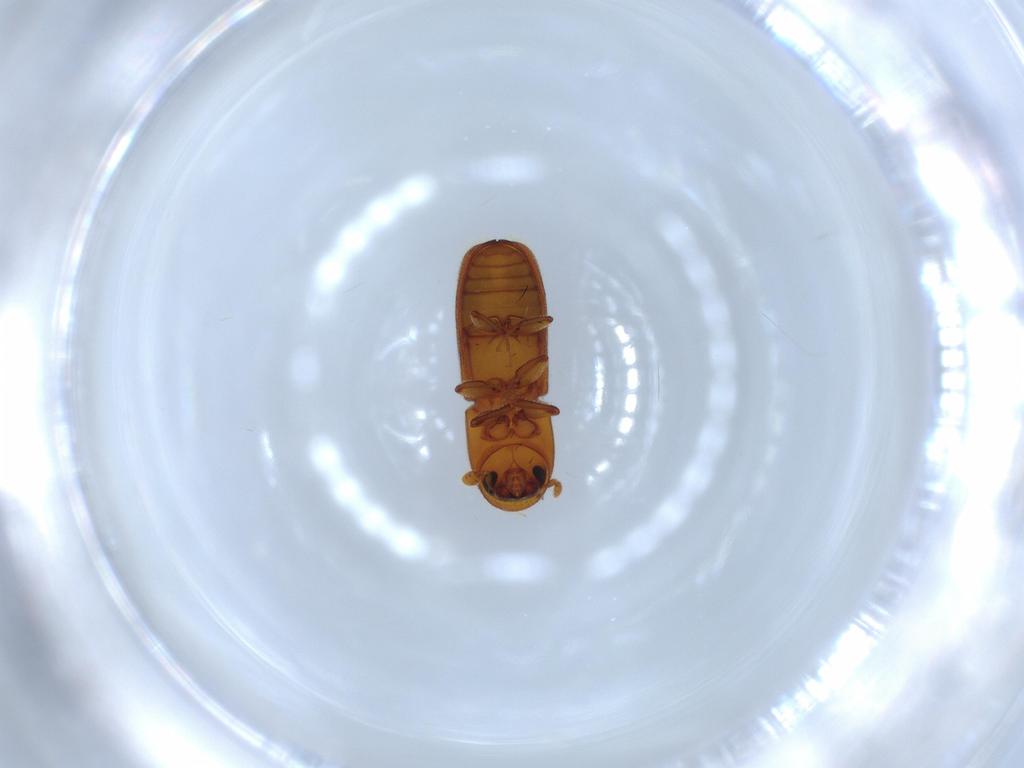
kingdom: Animalia
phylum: Arthropoda
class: Insecta
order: Coleoptera
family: Curculionidae
